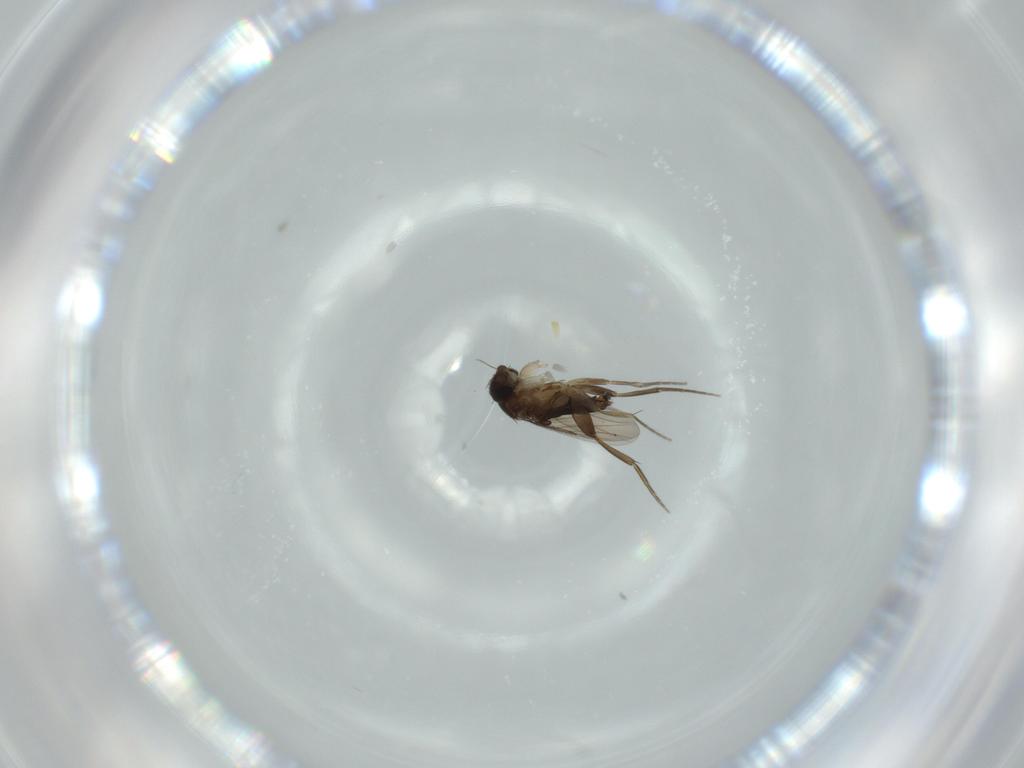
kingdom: Animalia
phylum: Arthropoda
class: Insecta
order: Diptera
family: Phoridae
